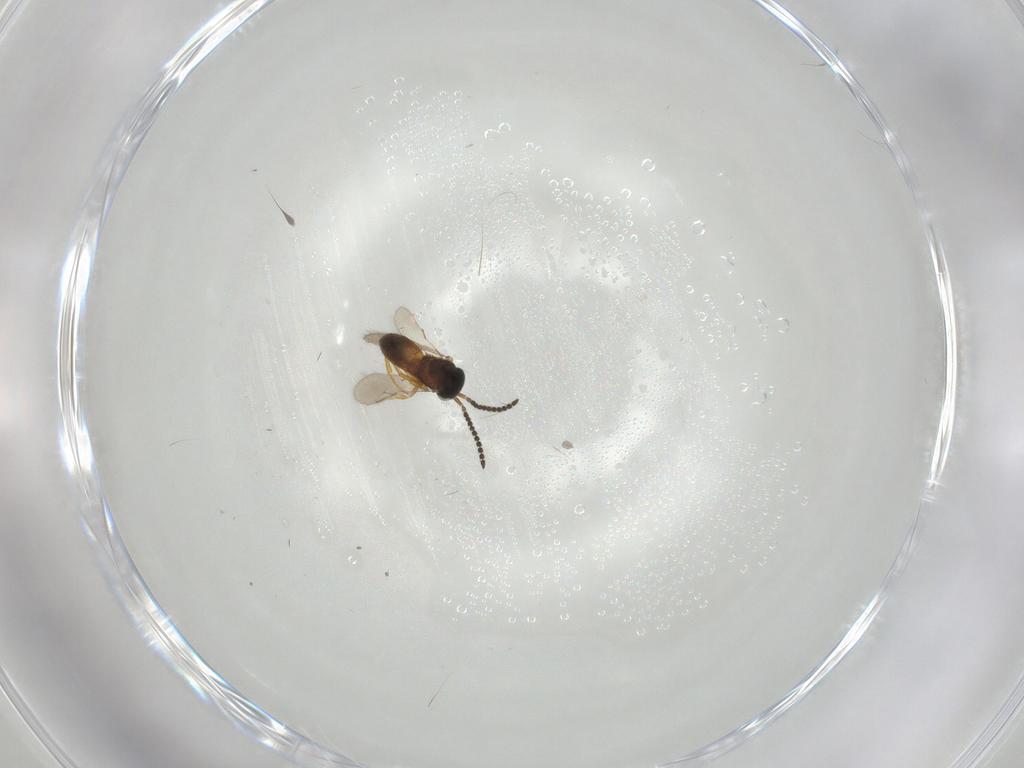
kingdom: Animalia
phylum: Arthropoda
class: Insecta
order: Hymenoptera
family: Scelionidae
